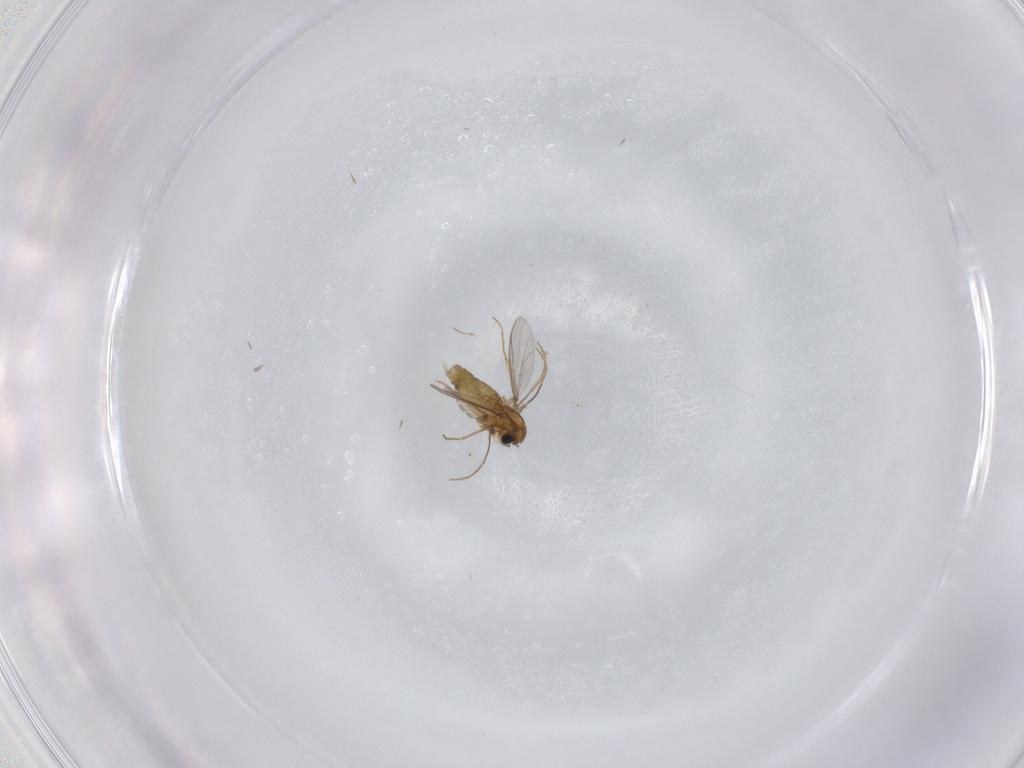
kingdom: Animalia
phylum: Arthropoda
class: Insecta
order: Diptera
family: Chironomidae
